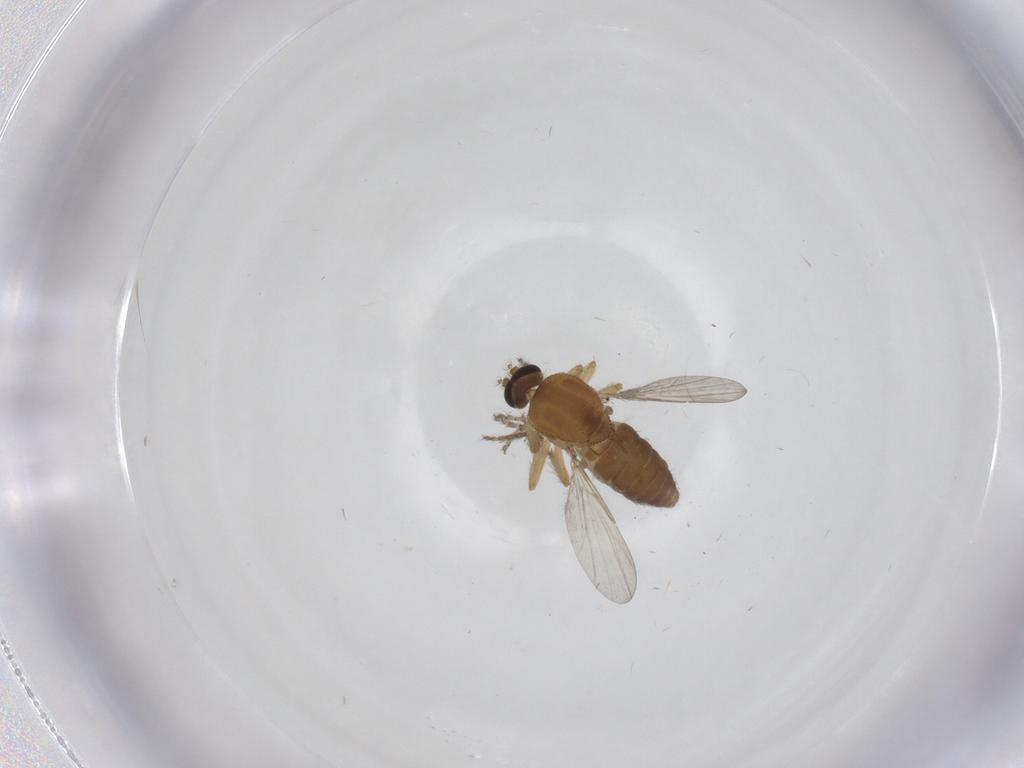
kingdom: Animalia
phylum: Arthropoda
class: Insecta
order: Diptera
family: Ceratopogonidae
